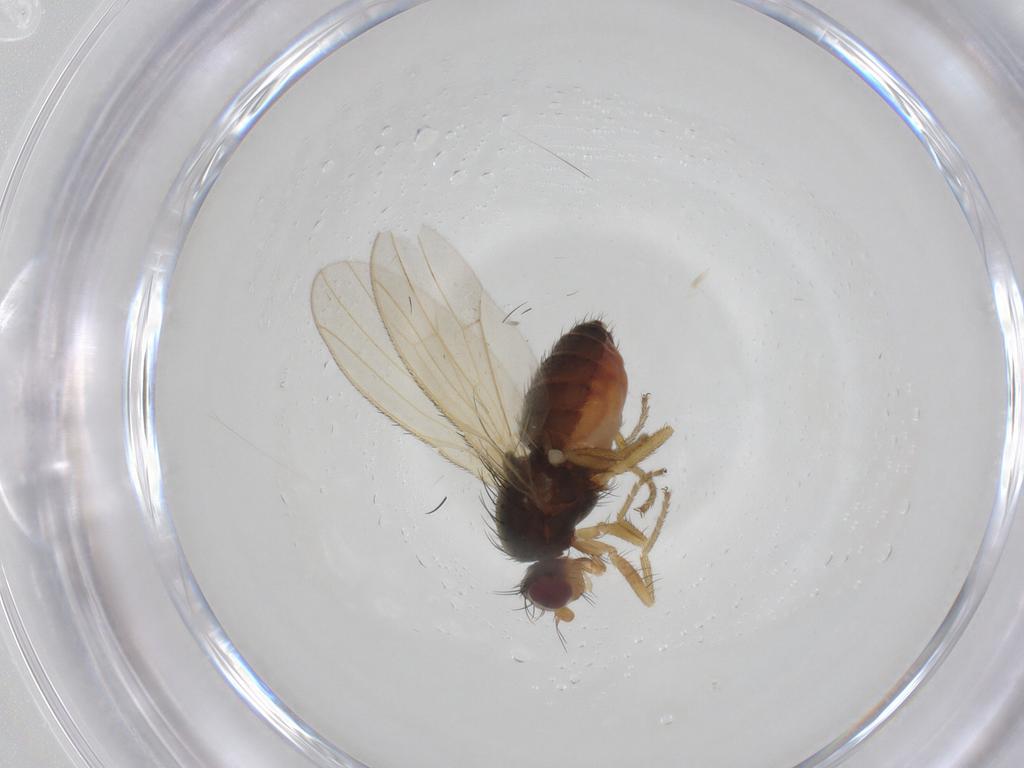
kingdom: Animalia
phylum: Arthropoda
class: Insecta
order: Diptera
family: Heleomyzidae
